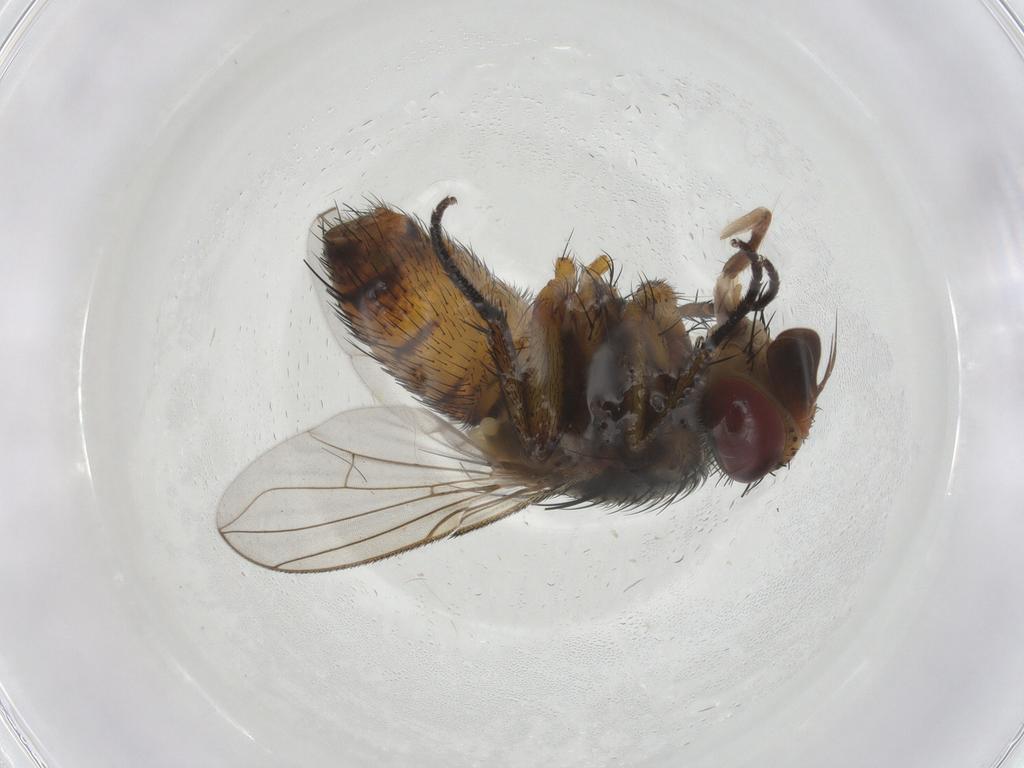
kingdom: Animalia
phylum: Arthropoda
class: Insecta
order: Diptera
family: Tachinidae
